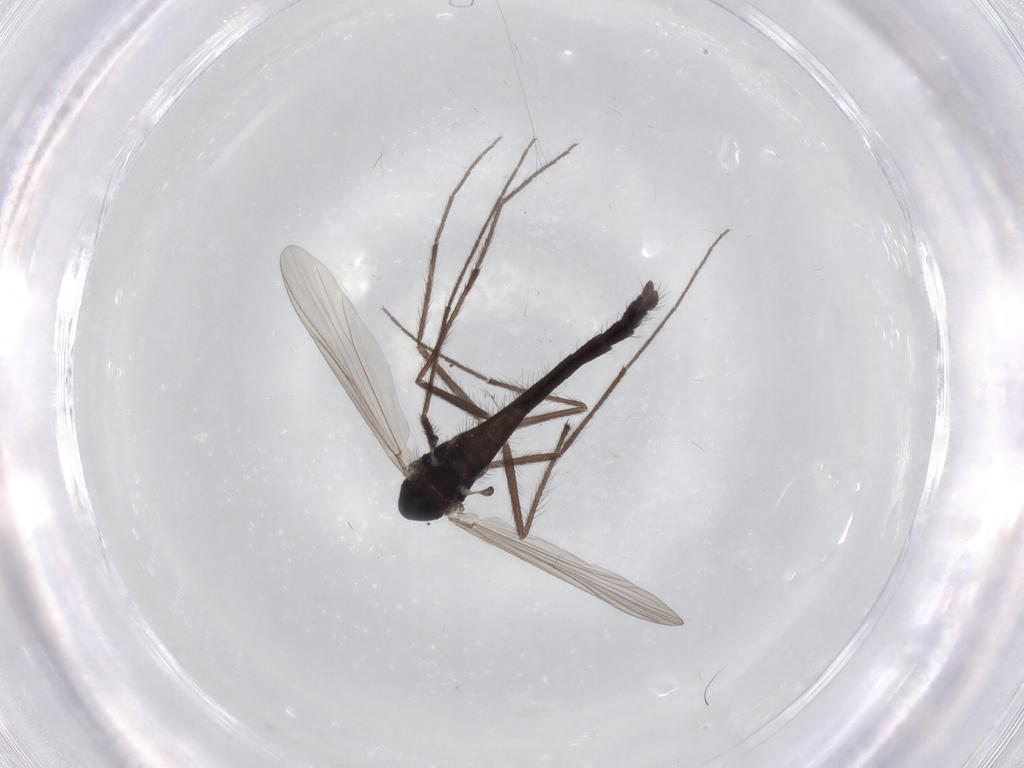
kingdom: Animalia
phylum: Arthropoda
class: Insecta
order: Diptera
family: Chironomidae
